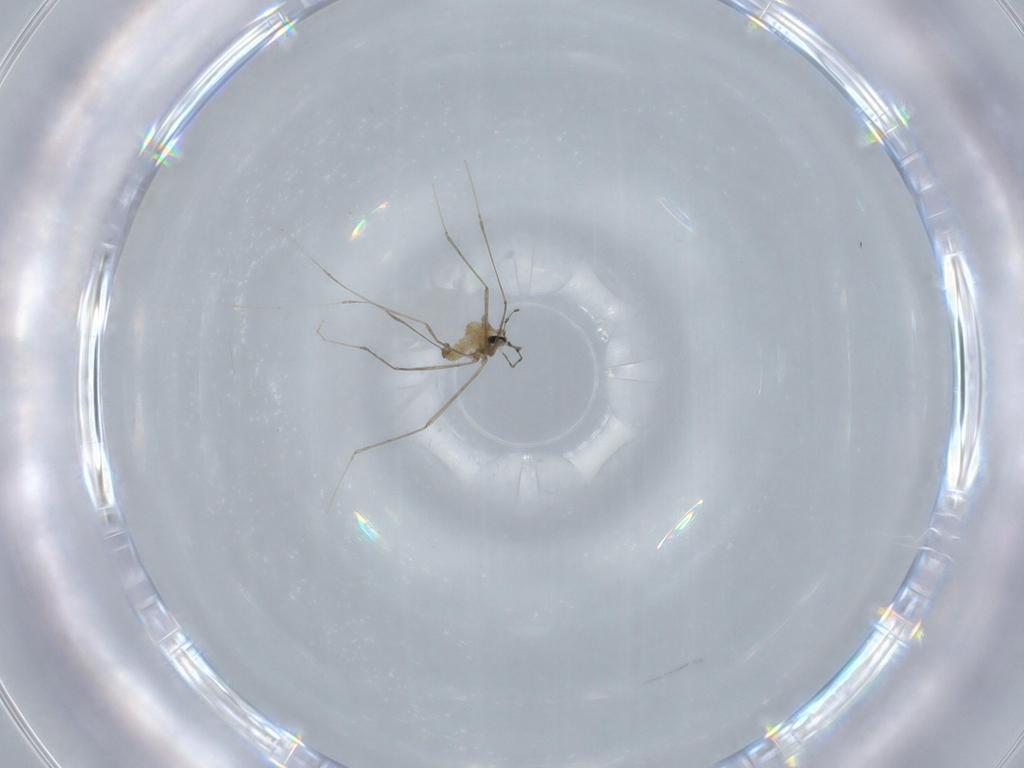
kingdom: Animalia
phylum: Arthropoda
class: Insecta
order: Diptera
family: Cecidomyiidae
